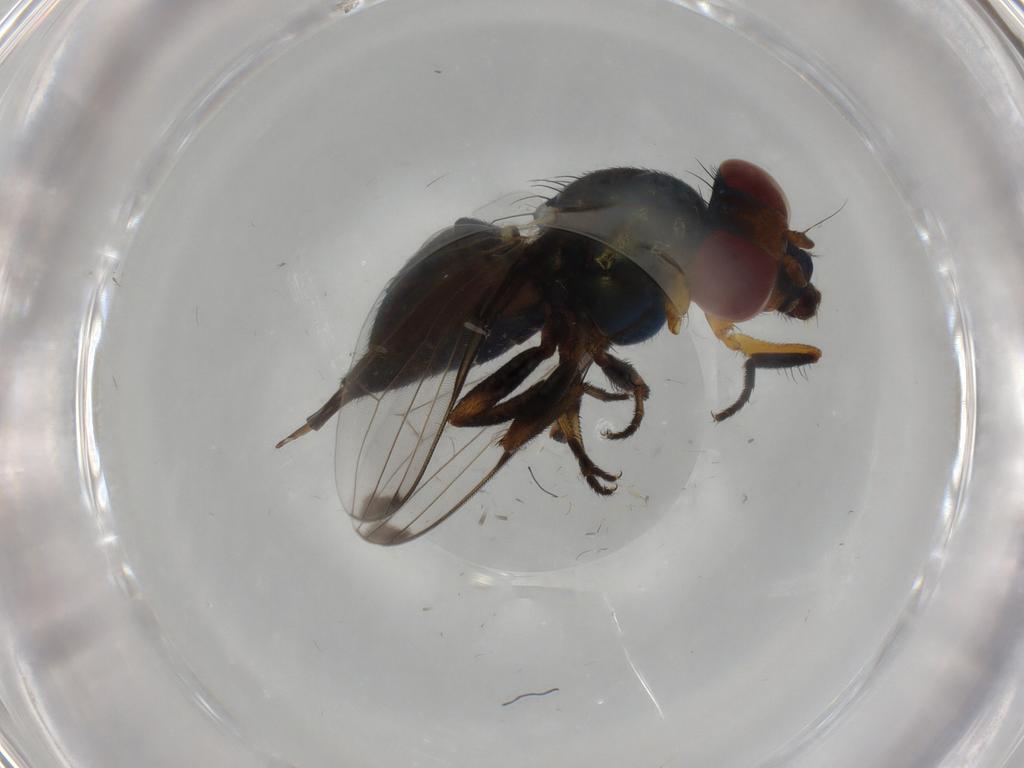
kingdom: Animalia
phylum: Arthropoda
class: Insecta
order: Diptera
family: Chironomidae
